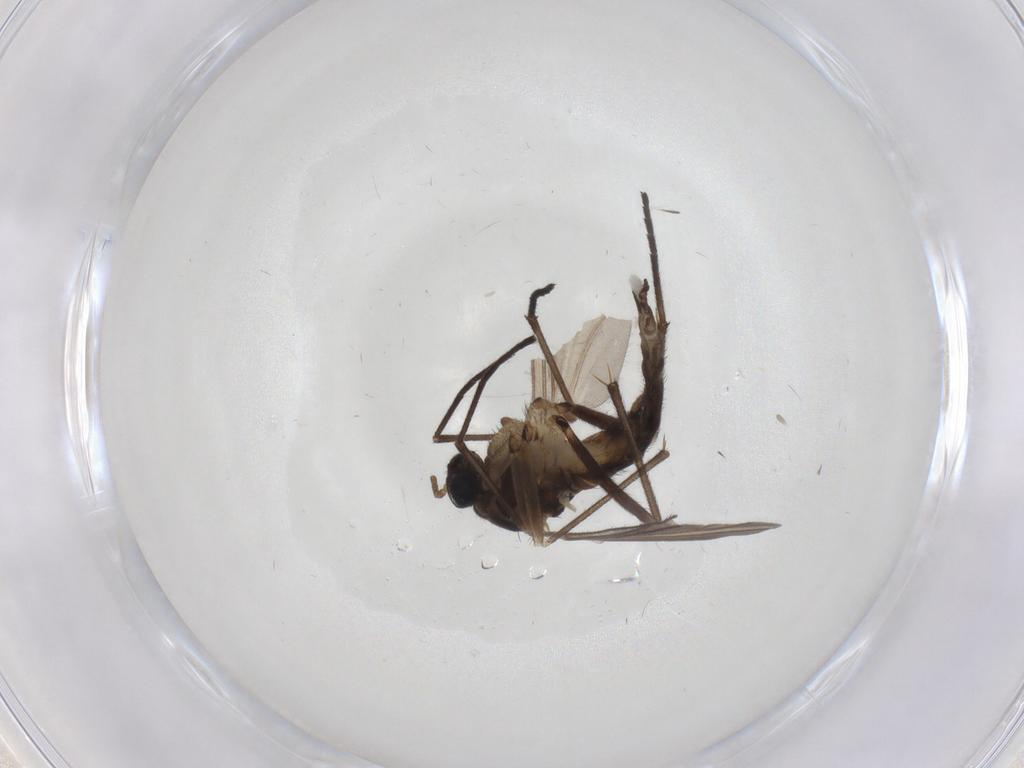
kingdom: Animalia
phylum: Arthropoda
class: Insecta
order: Diptera
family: Sciaridae
